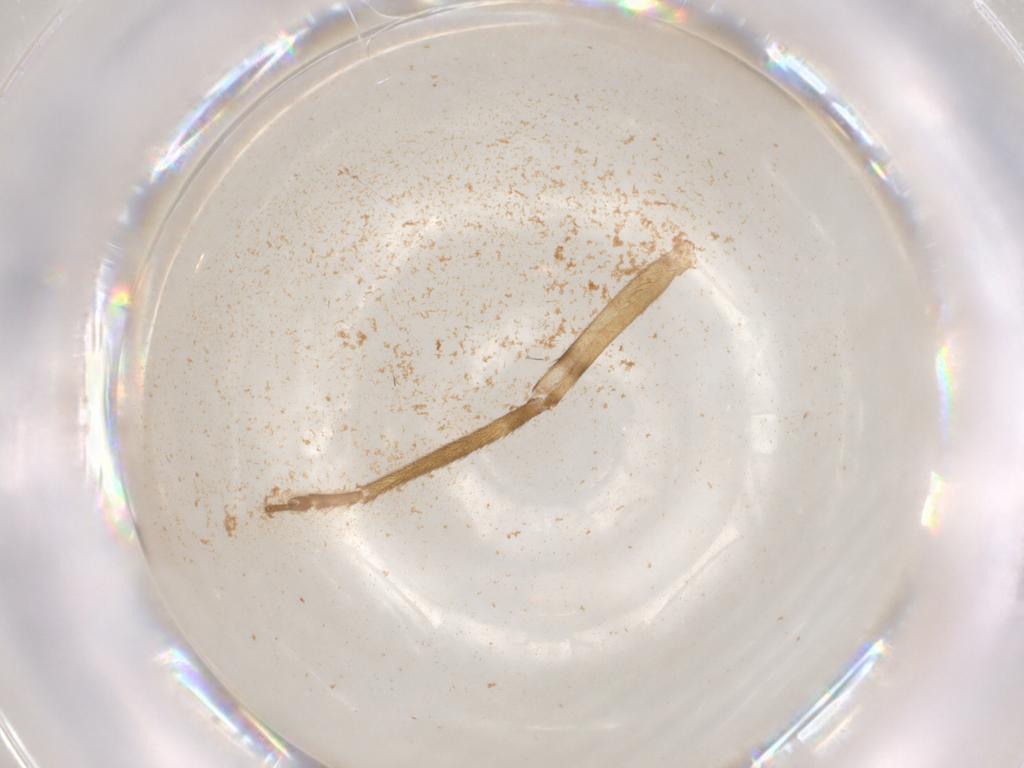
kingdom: Animalia
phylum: Arthropoda
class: Insecta
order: Orthoptera
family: Trigonidiidae
